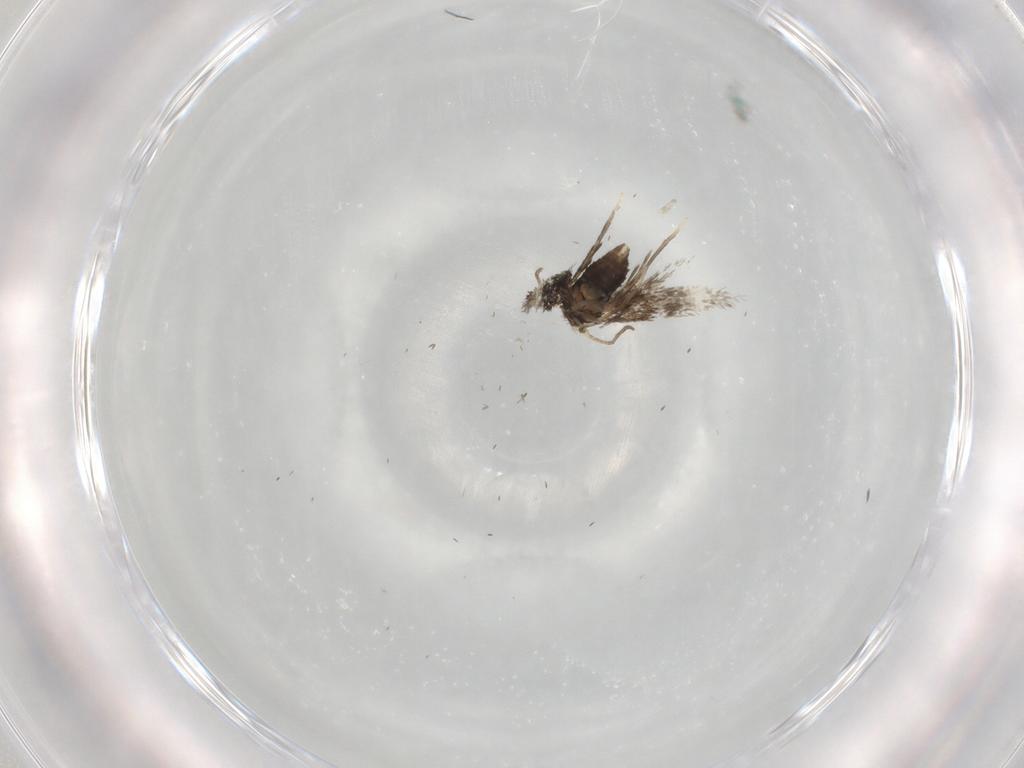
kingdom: Animalia
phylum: Arthropoda
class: Insecta
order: Lepidoptera
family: Nepticulidae
